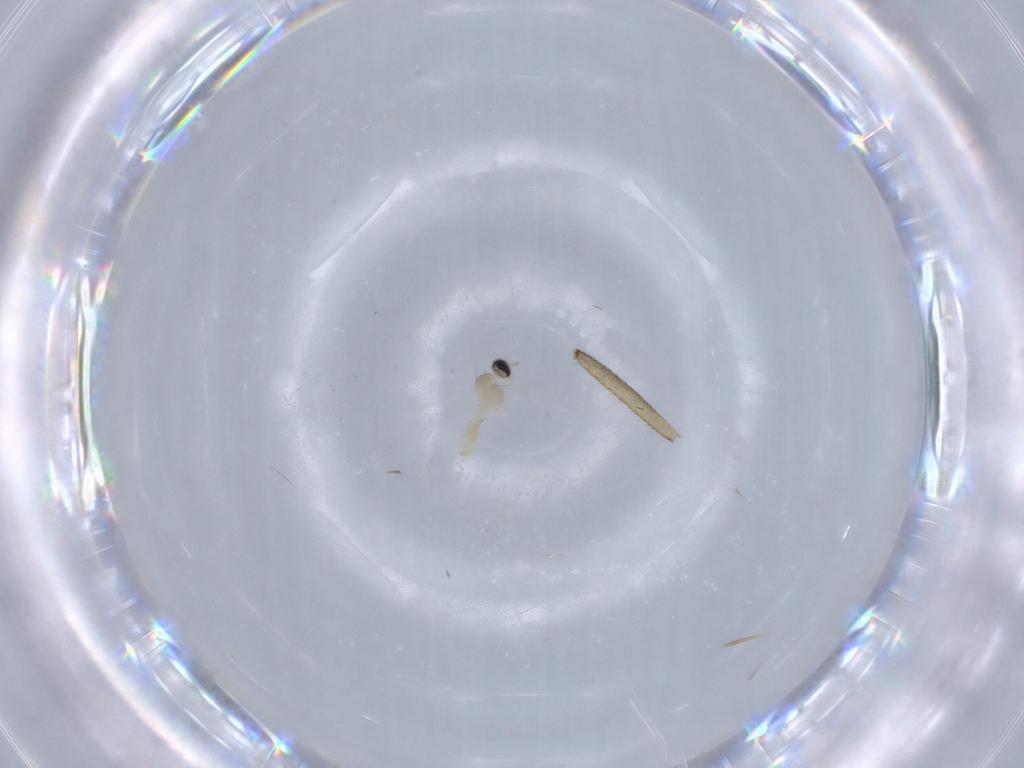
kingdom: Animalia
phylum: Arthropoda
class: Insecta
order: Diptera
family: Cecidomyiidae
